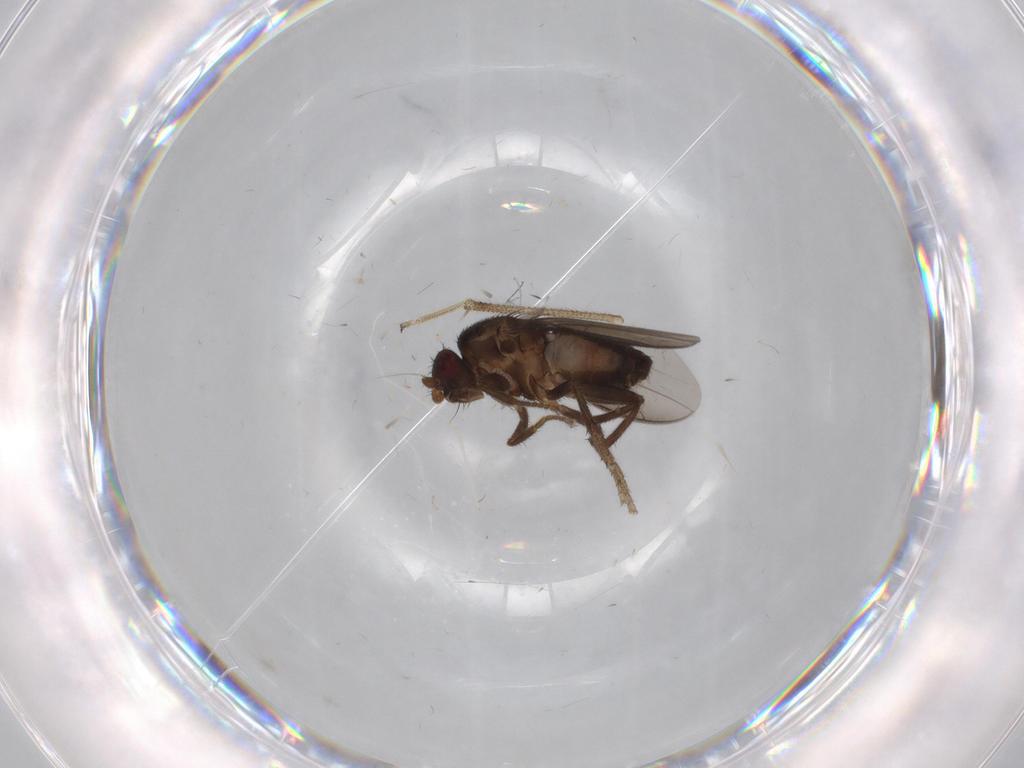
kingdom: Animalia
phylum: Arthropoda
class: Insecta
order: Diptera
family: Sphaeroceridae
